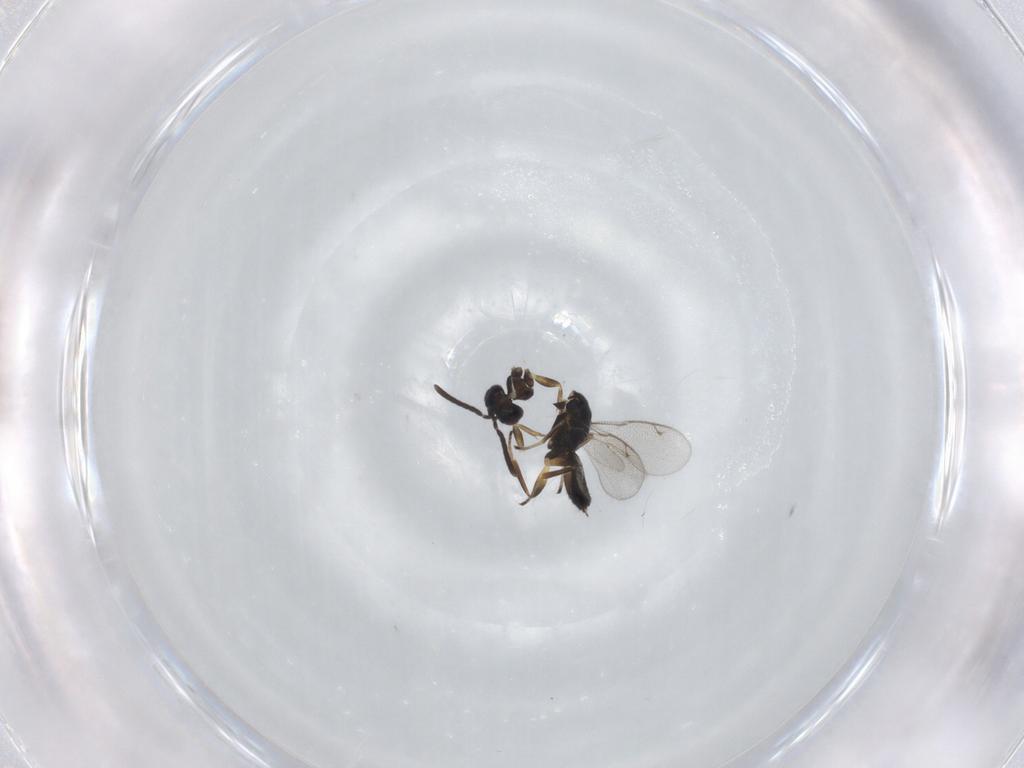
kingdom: Animalia
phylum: Arthropoda
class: Insecta
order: Hymenoptera
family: Eupelmidae
